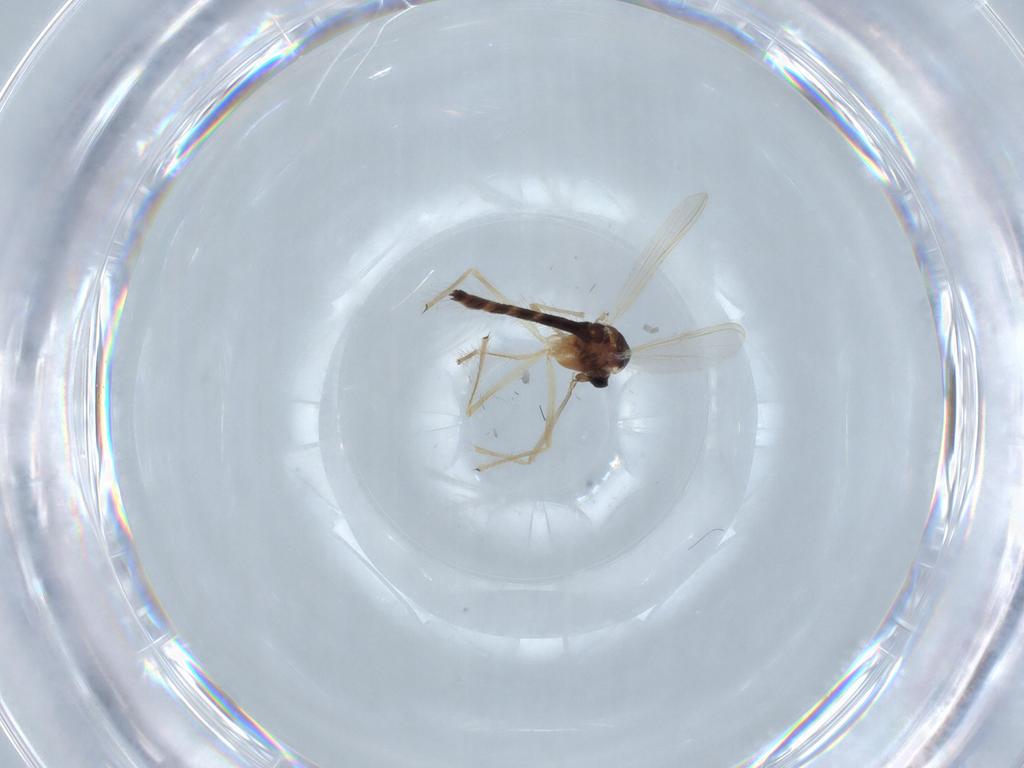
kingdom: Animalia
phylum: Arthropoda
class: Insecta
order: Diptera
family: Chironomidae
